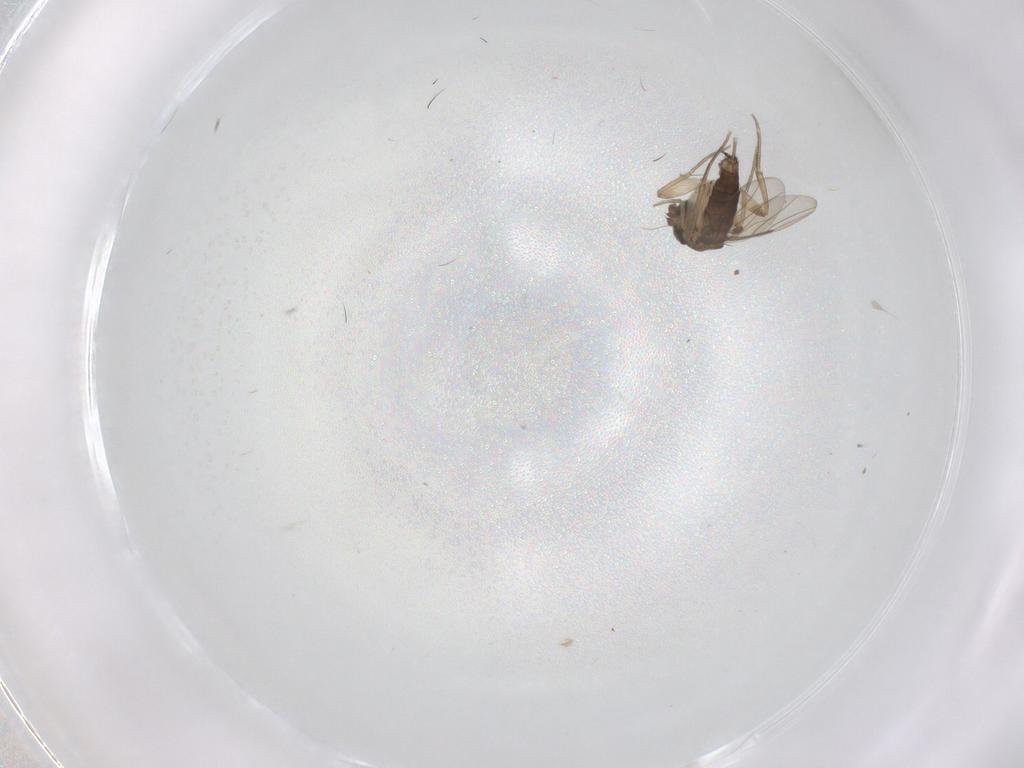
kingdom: Animalia
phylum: Arthropoda
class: Insecta
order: Diptera
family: Phoridae
